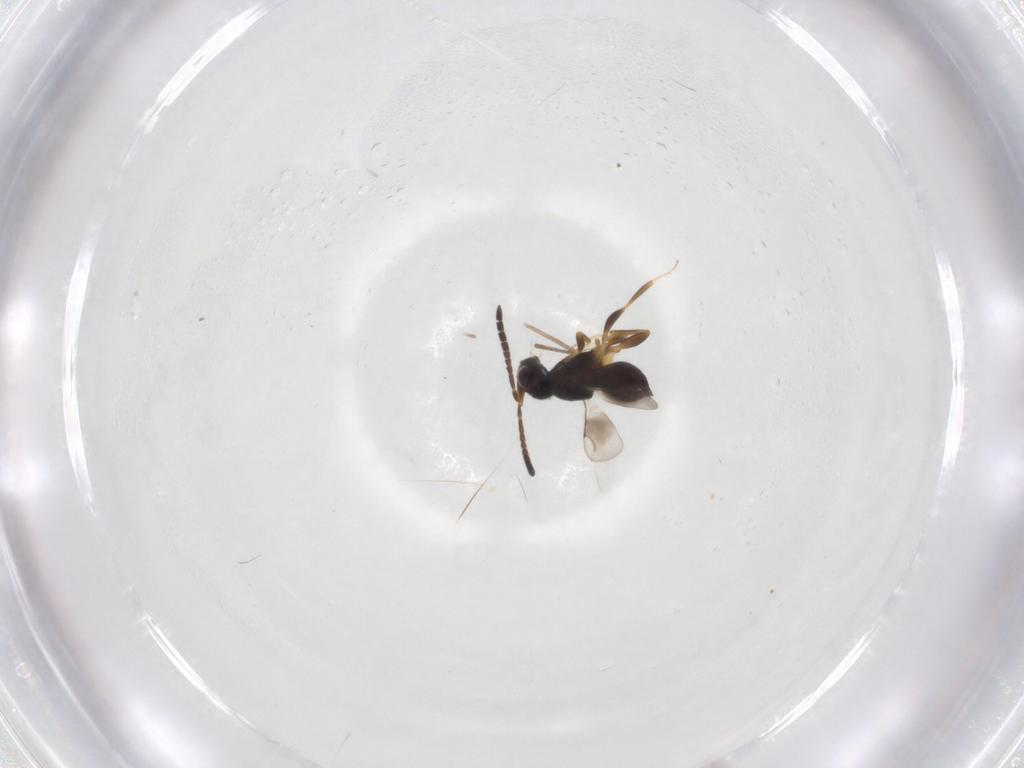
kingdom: Animalia
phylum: Arthropoda
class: Insecta
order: Hymenoptera
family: Ceraphronidae
